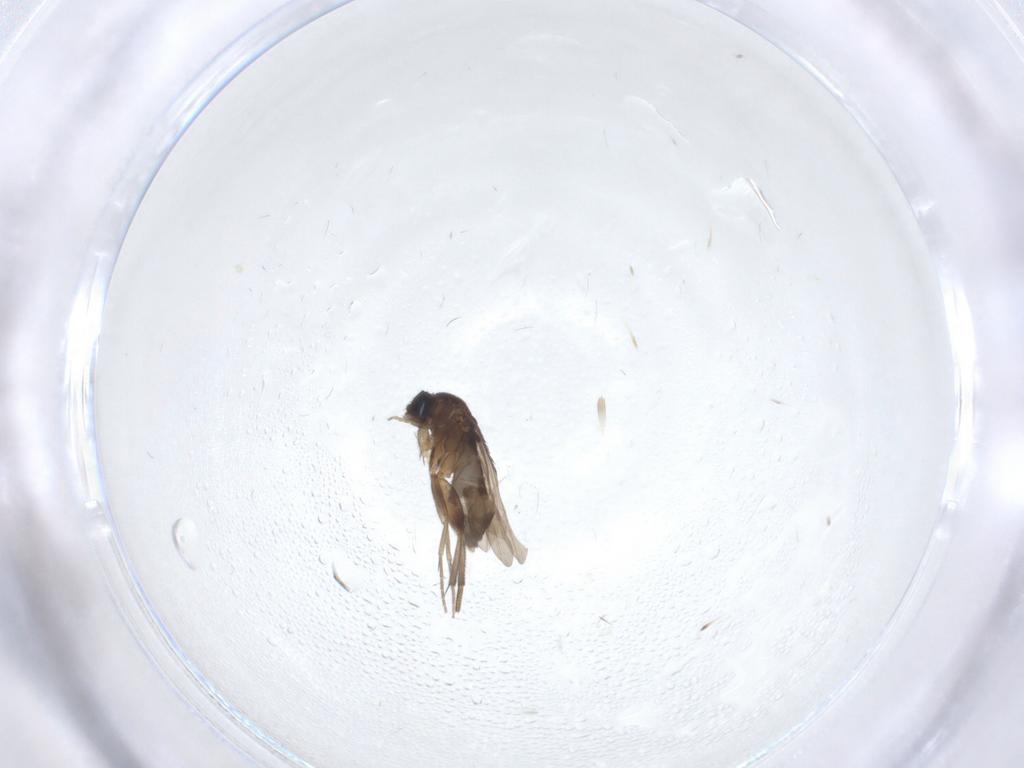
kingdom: Animalia
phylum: Arthropoda
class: Insecta
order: Diptera
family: Phoridae
